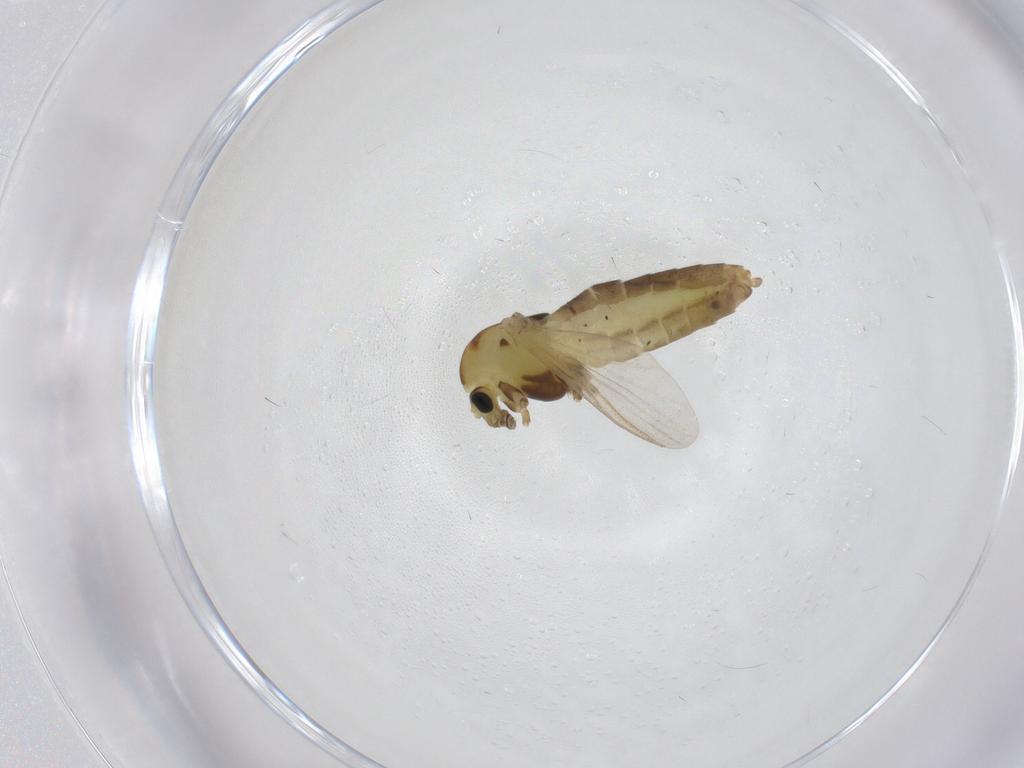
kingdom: Animalia
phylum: Arthropoda
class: Insecta
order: Diptera
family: Chironomidae
